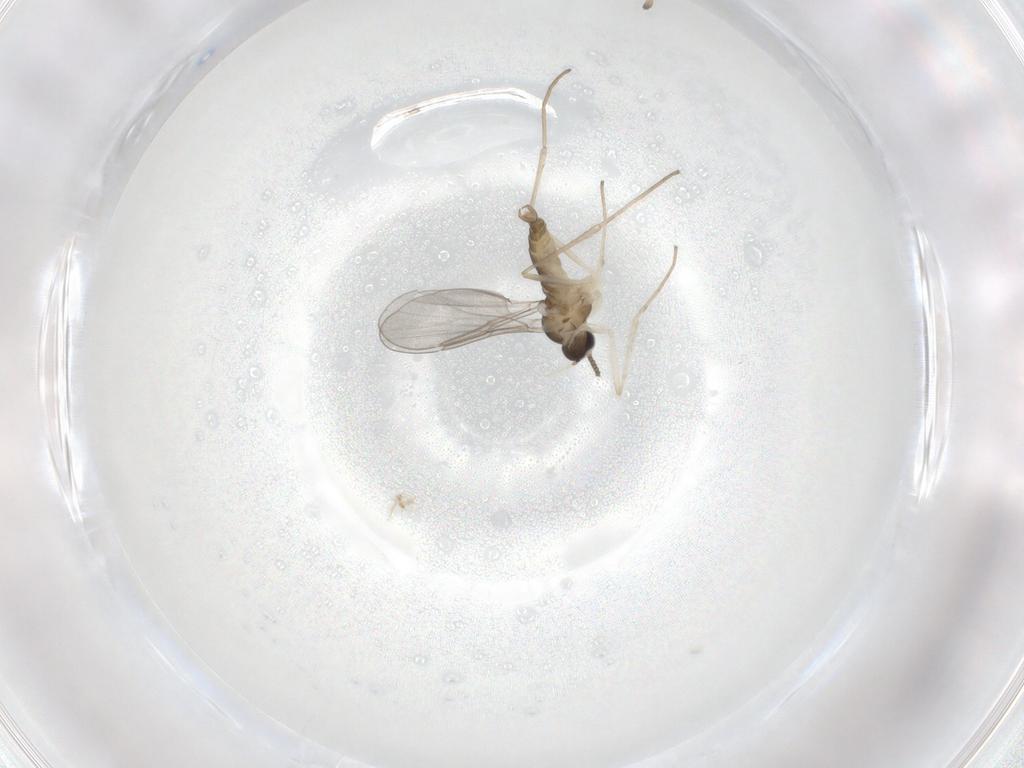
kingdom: Animalia
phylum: Arthropoda
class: Insecta
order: Diptera
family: Cecidomyiidae
